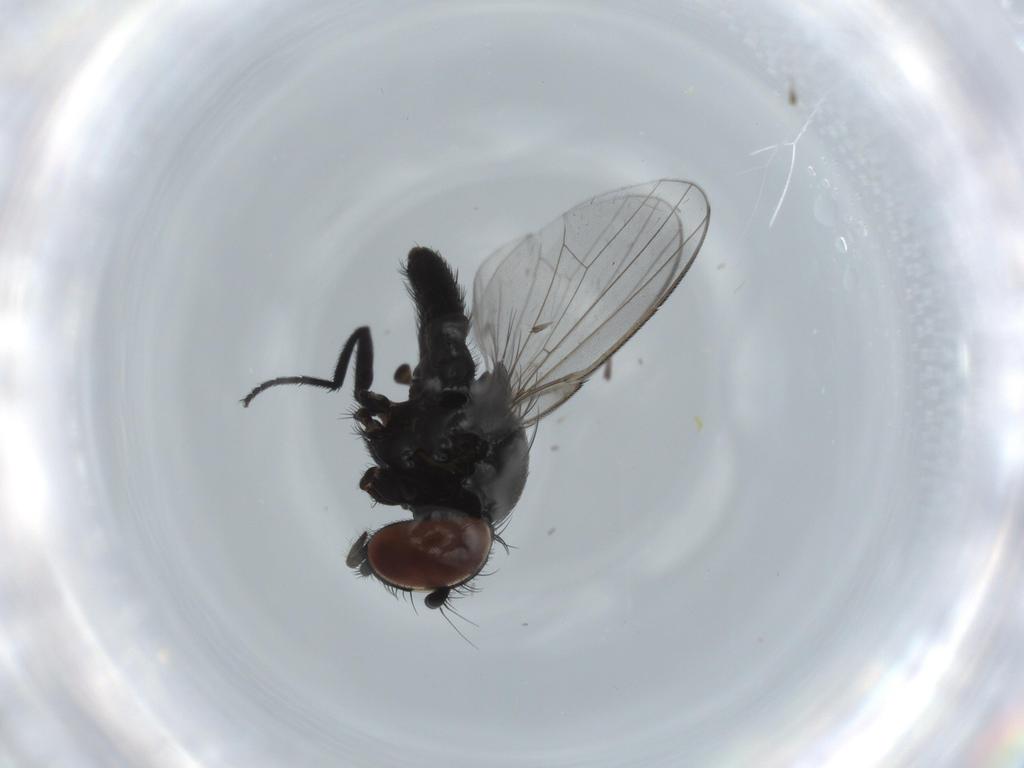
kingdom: Animalia
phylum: Arthropoda
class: Insecta
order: Diptera
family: Milichiidae
